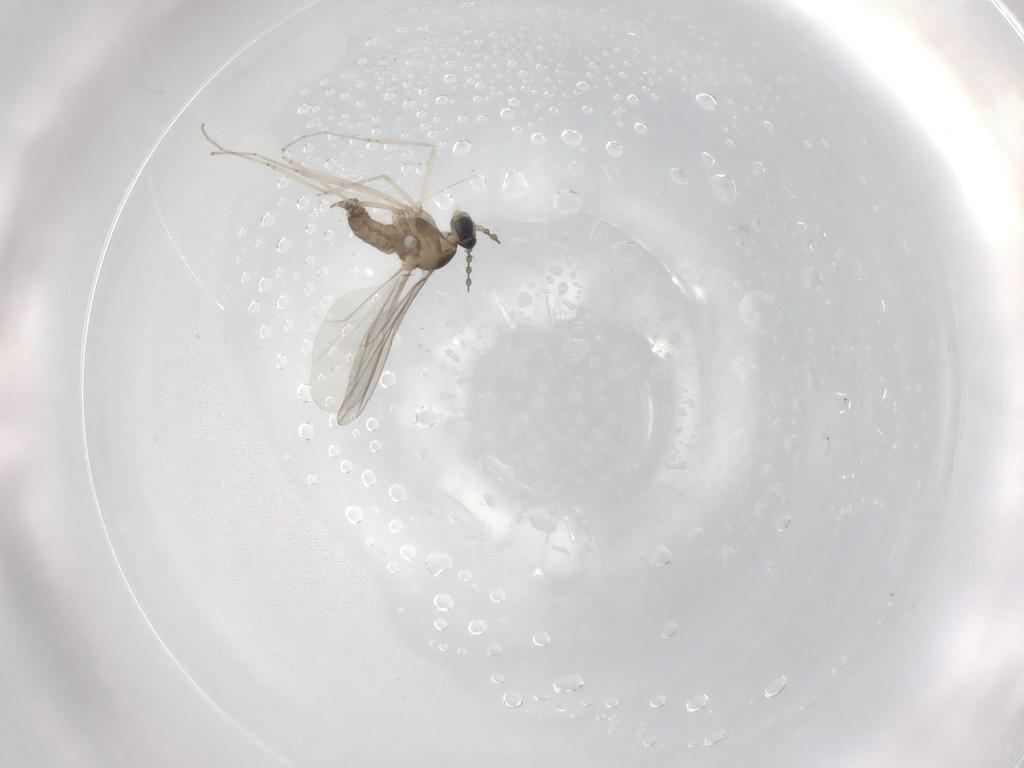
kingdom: Animalia
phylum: Arthropoda
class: Insecta
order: Diptera
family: Cecidomyiidae
